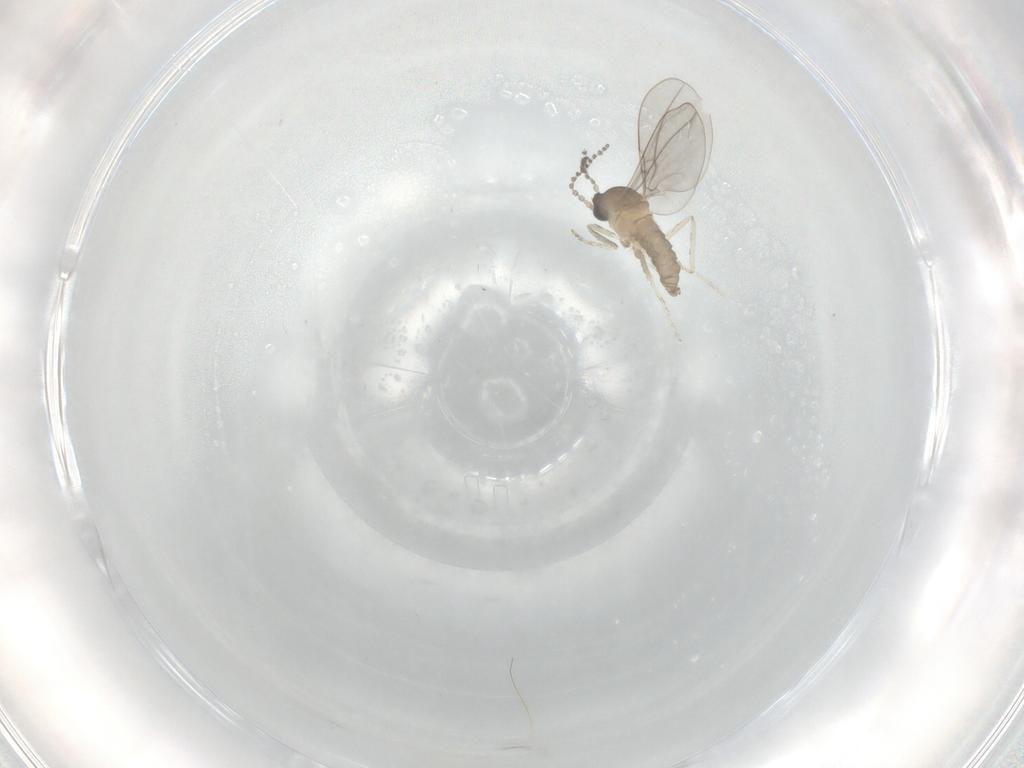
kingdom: Animalia
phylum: Arthropoda
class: Insecta
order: Diptera
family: Cecidomyiidae
